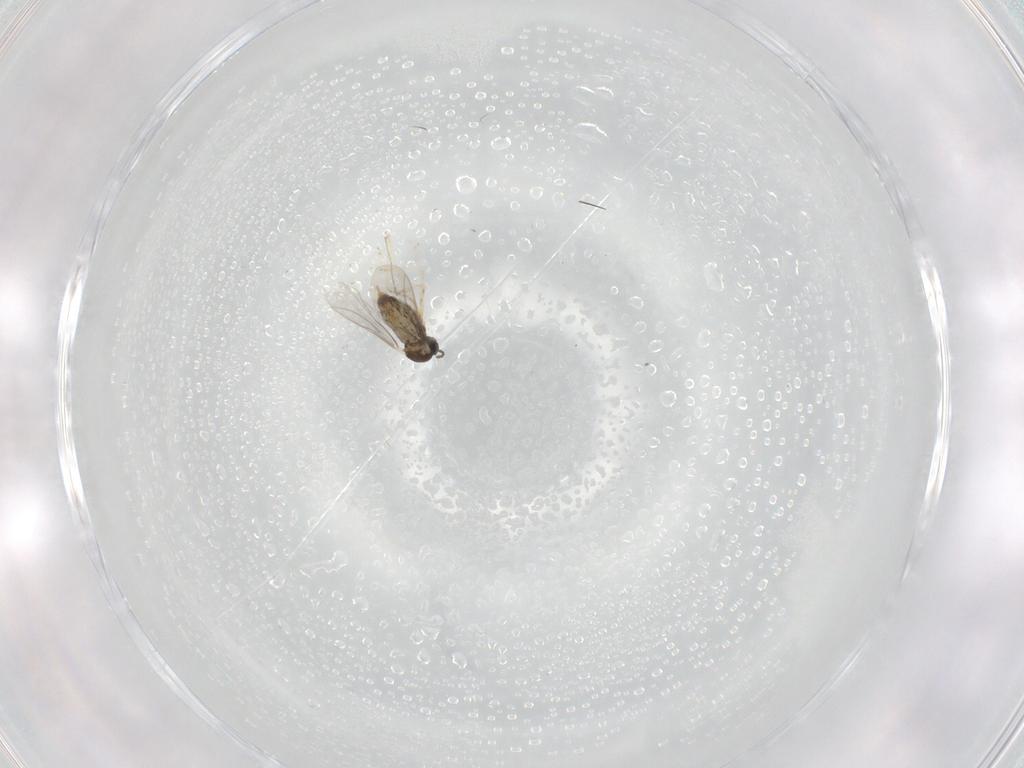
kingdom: Animalia
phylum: Arthropoda
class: Insecta
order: Diptera
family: Cecidomyiidae
